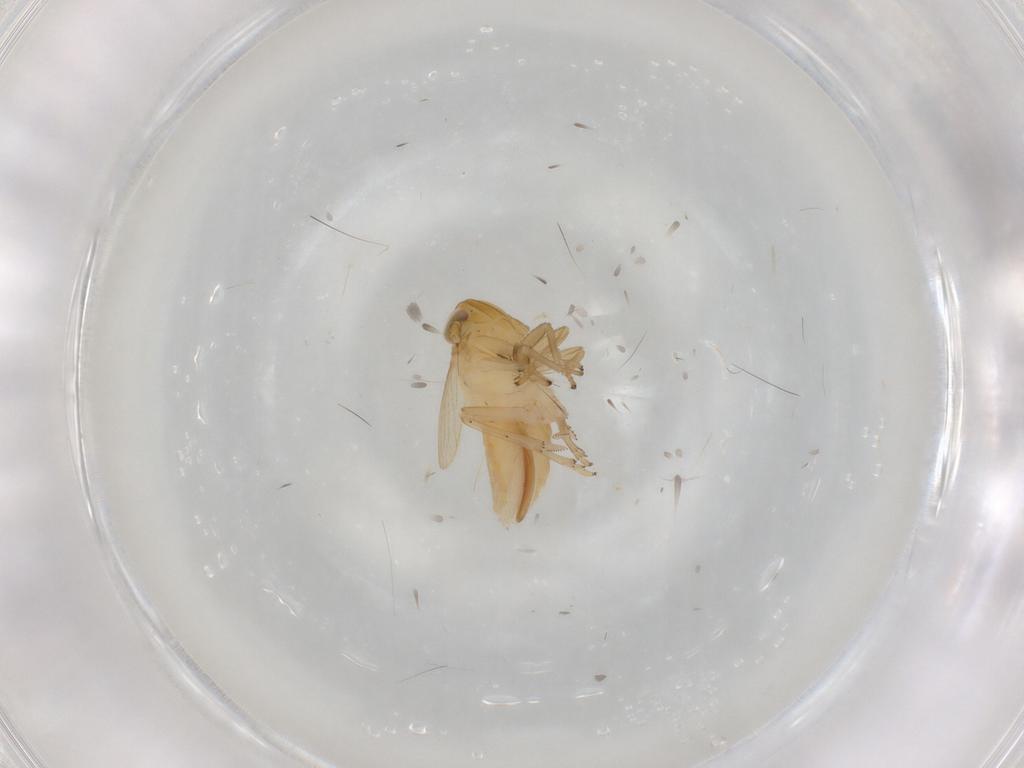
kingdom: Animalia
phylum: Arthropoda
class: Insecta
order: Hemiptera
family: Delphacidae
